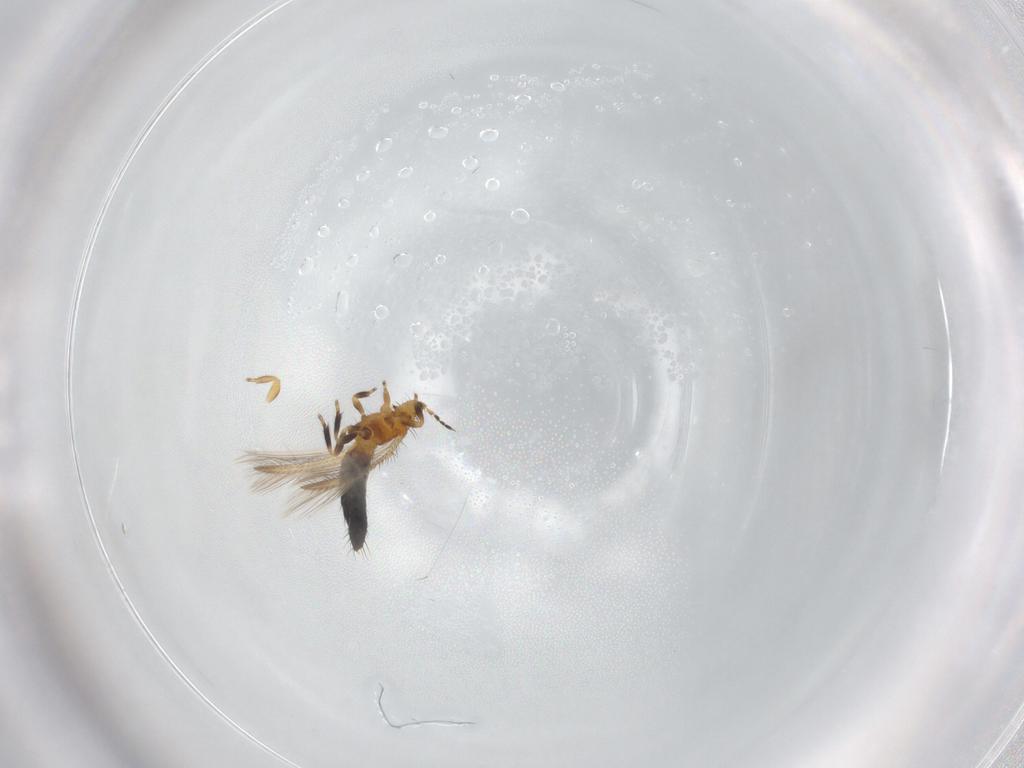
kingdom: Animalia
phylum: Arthropoda
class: Insecta
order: Thysanoptera
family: Thripidae
